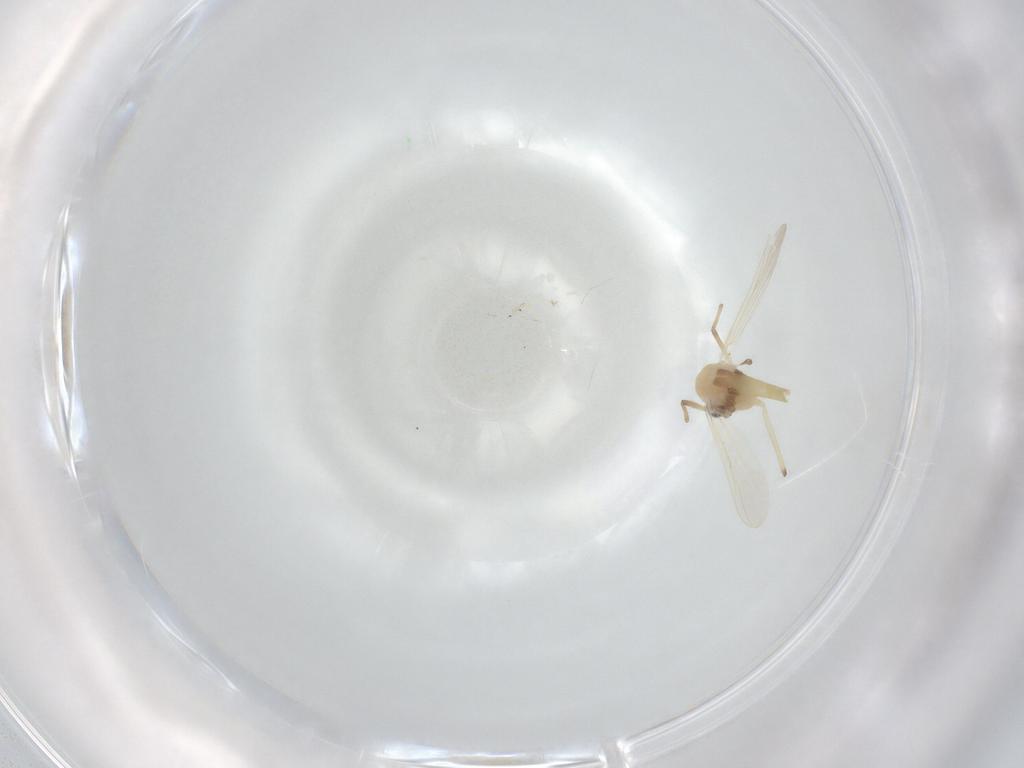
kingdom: Animalia
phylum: Arthropoda
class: Insecta
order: Diptera
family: Chironomidae
